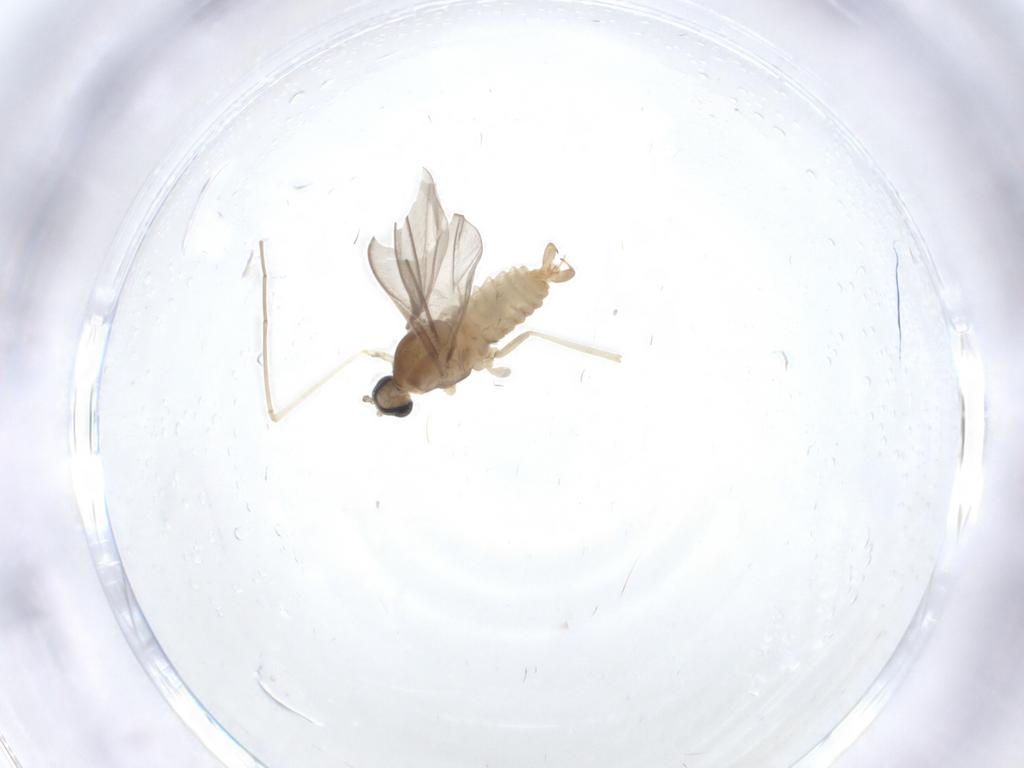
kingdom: Animalia
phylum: Arthropoda
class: Insecta
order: Diptera
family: Cecidomyiidae
